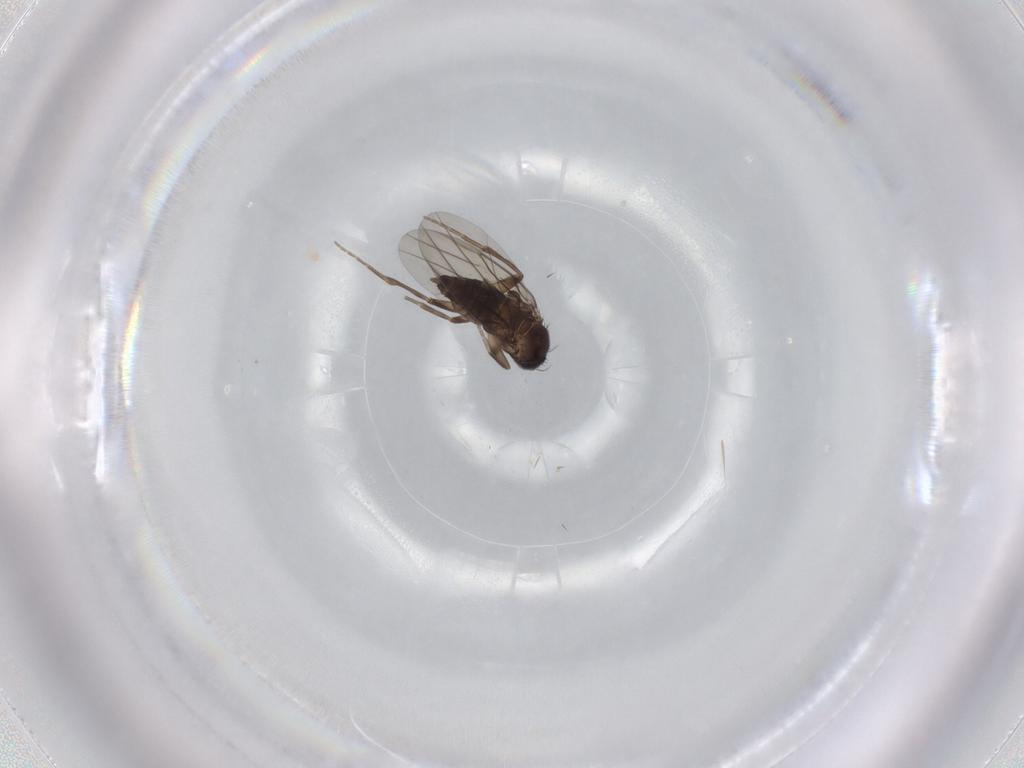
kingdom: Animalia
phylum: Arthropoda
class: Insecta
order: Diptera
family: Phoridae
